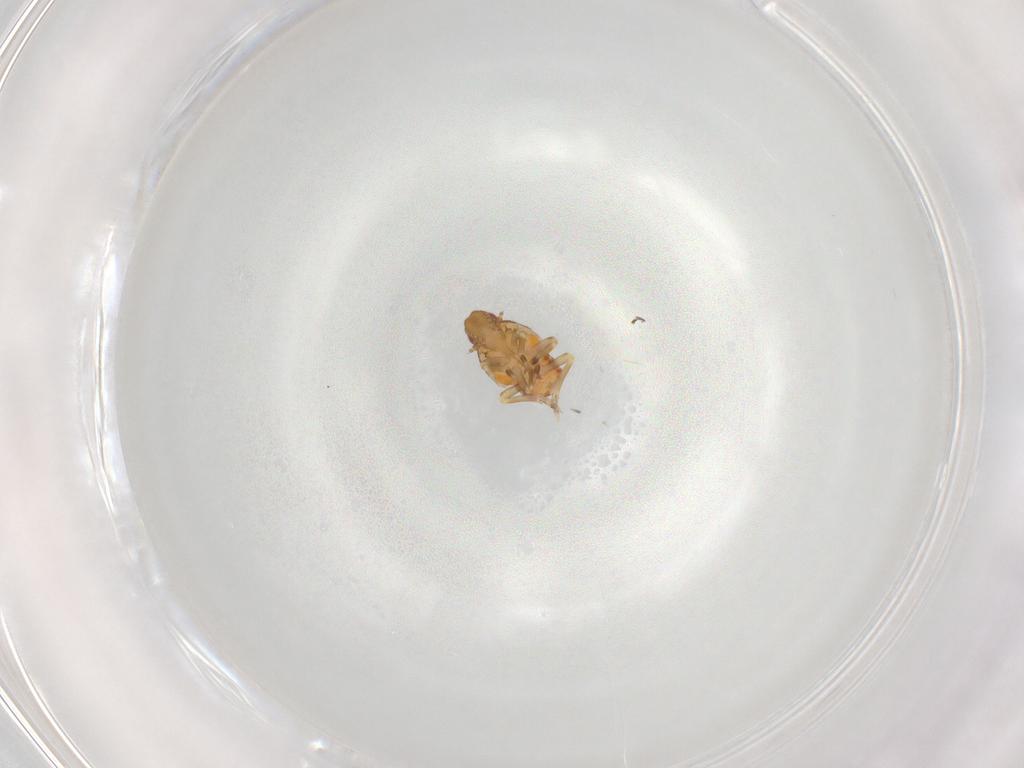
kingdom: Animalia
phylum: Arthropoda
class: Insecta
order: Hemiptera
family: Flatidae
